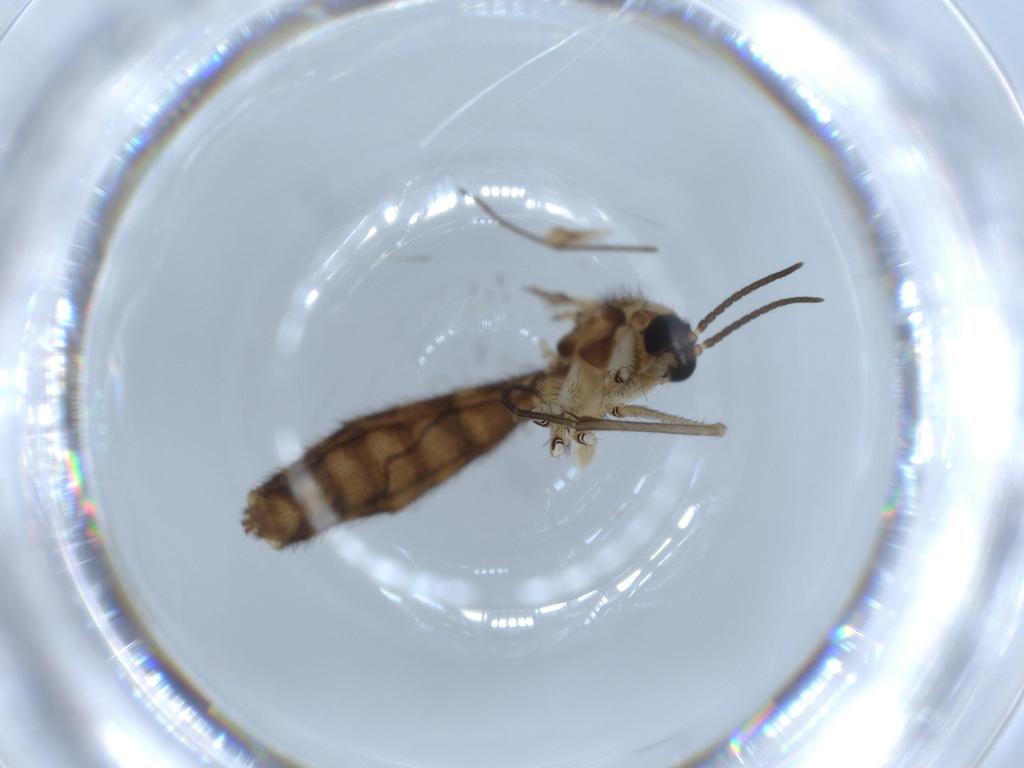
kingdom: Animalia
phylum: Arthropoda
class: Insecta
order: Diptera
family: Chironomidae
